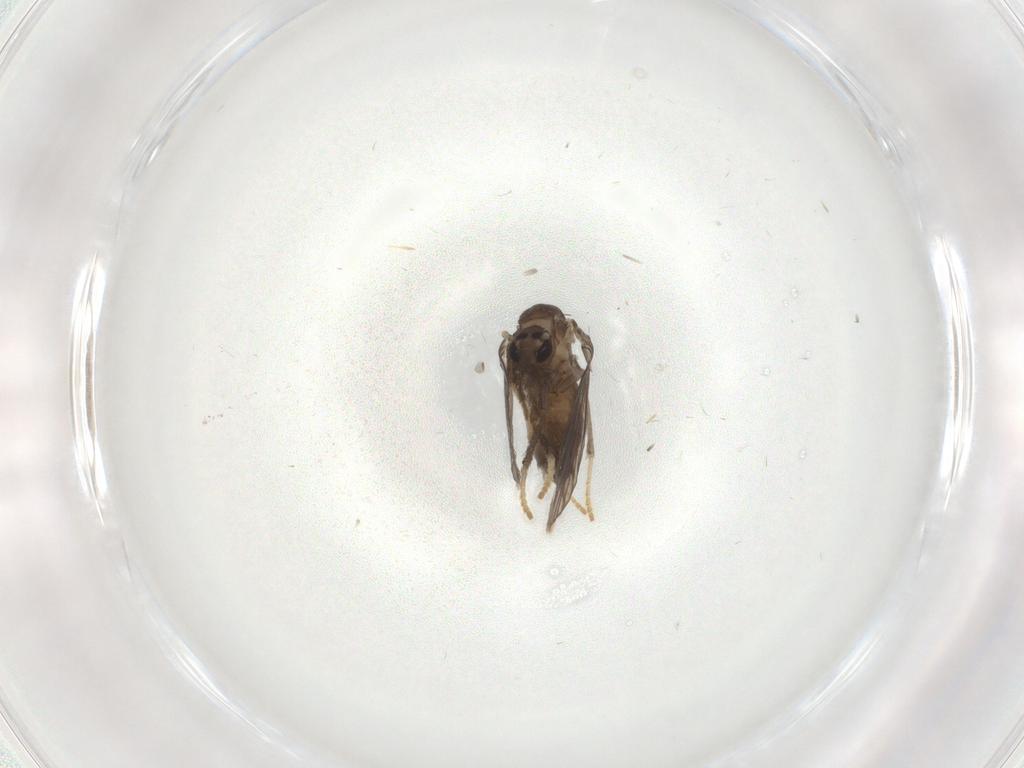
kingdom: Animalia
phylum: Arthropoda
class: Insecta
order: Diptera
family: Psychodidae
